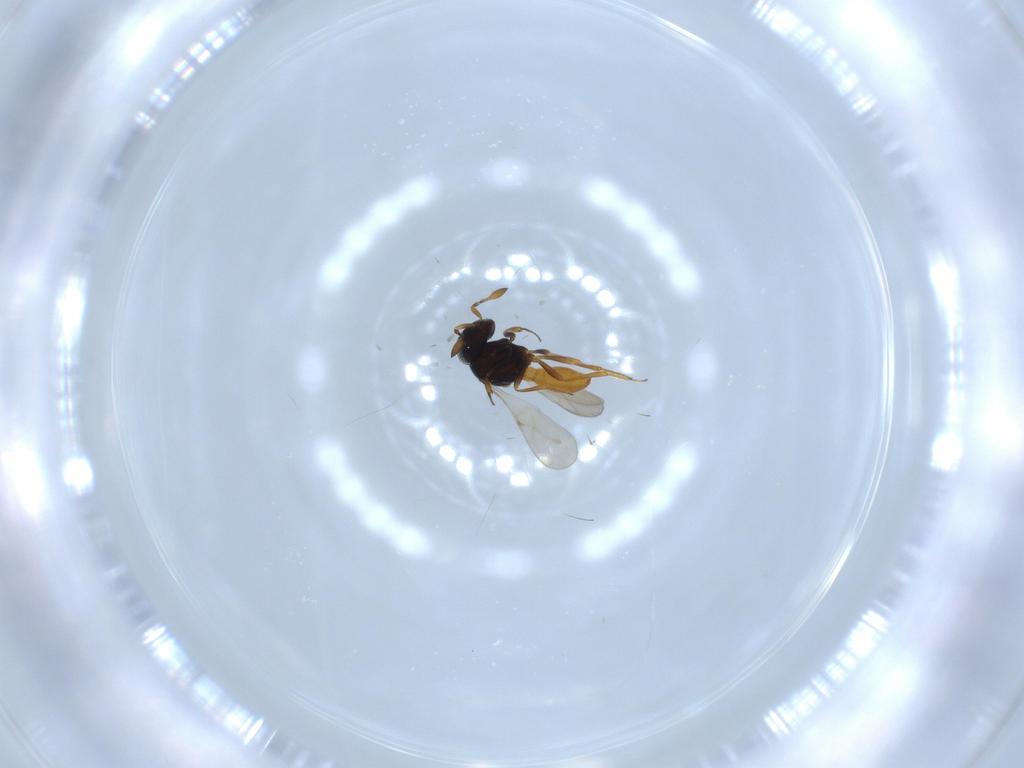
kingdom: Animalia
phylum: Arthropoda
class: Insecta
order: Hymenoptera
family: Scelionidae
